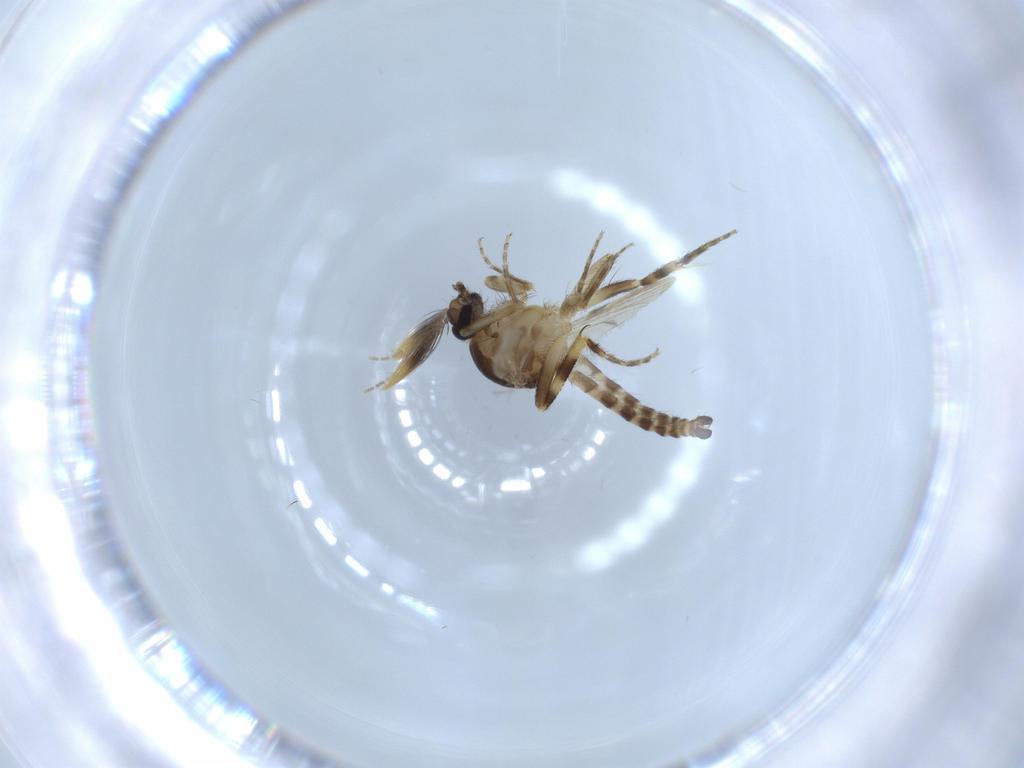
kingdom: Animalia
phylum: Arthropoda
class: Insecta
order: Diptera
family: Ceratopogonidae
